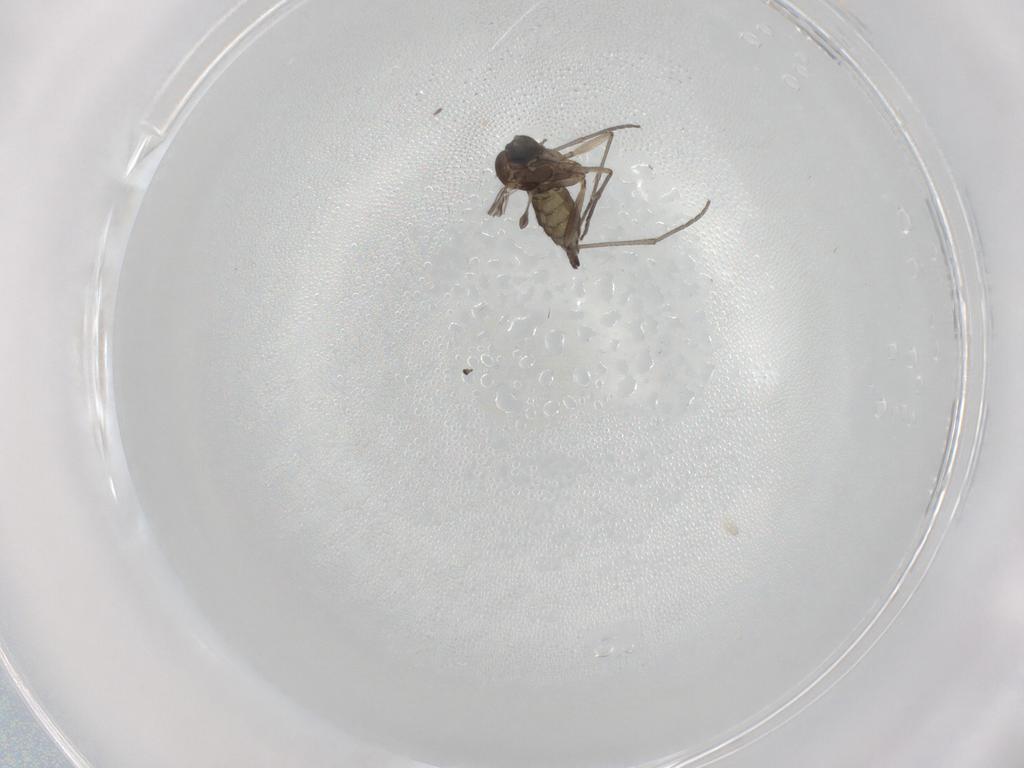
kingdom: Animalia
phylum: Arthropoda
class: Insecta
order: Diptera
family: Sciaridae
